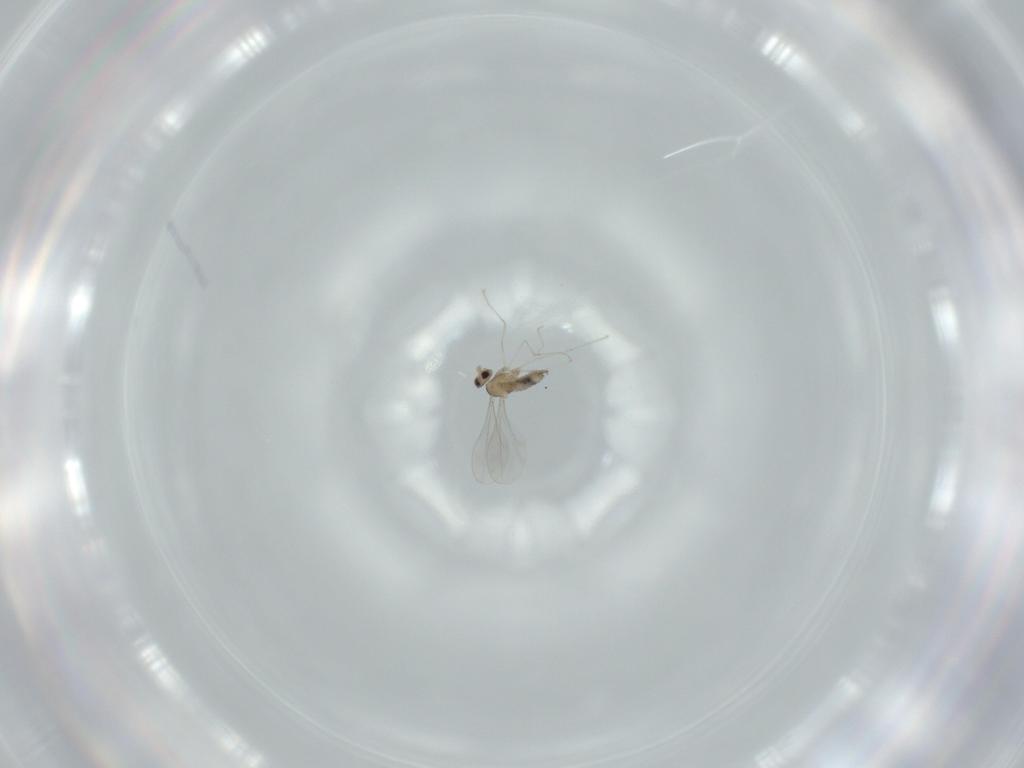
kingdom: Animalia
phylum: Arthropoda
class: Insecta
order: Diptera
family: Cecidomyiidae
